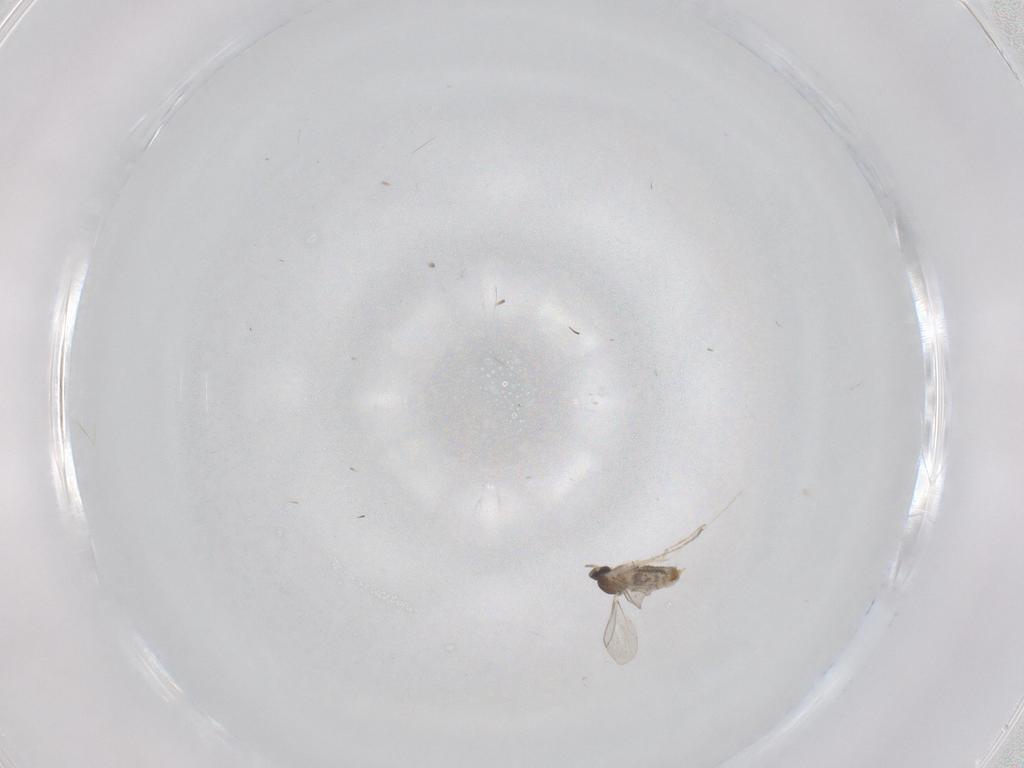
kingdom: Animalia
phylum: Arthropoda
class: Insecta
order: Diptera
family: Cecidomyiidae
